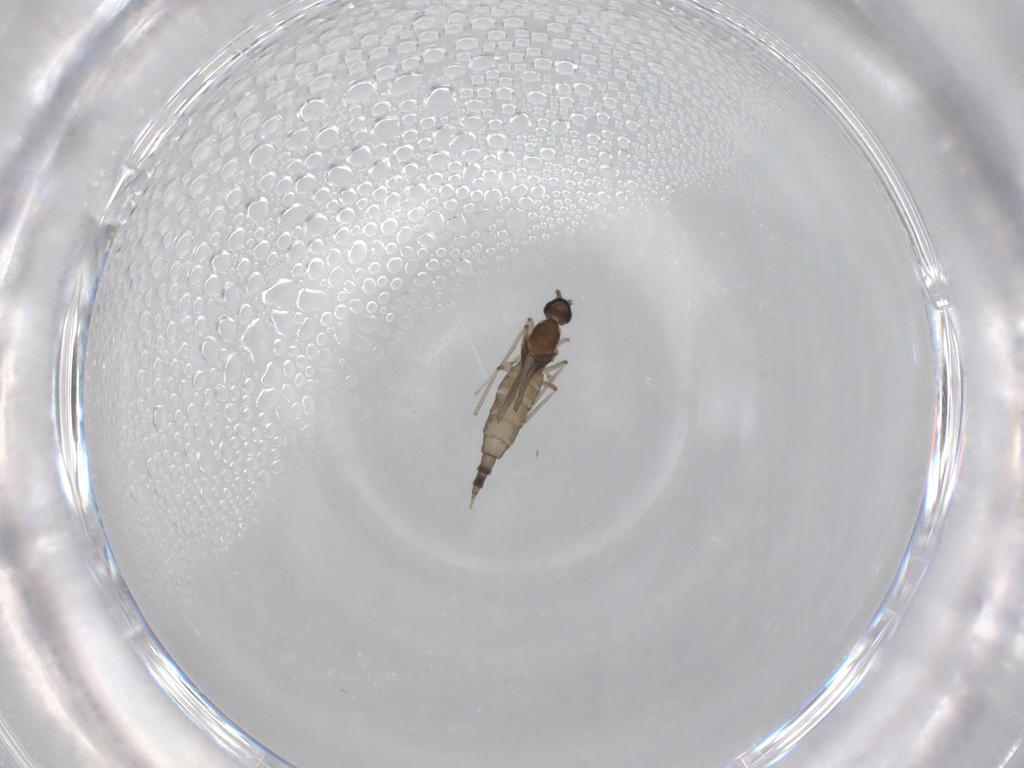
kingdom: Animalia
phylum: Arthropoda
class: Insecta
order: Diptera
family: Cecidomyiidae
